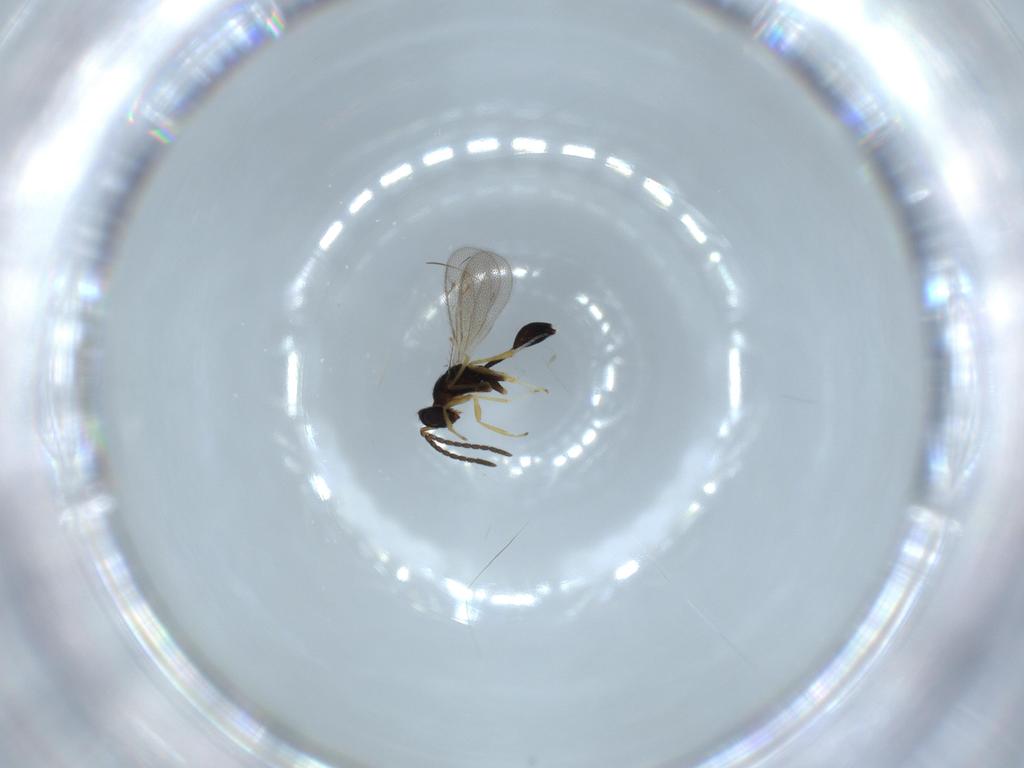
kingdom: Animalia
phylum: Arthropoda
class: Insecta
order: Hymenoptera
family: Diparidae
